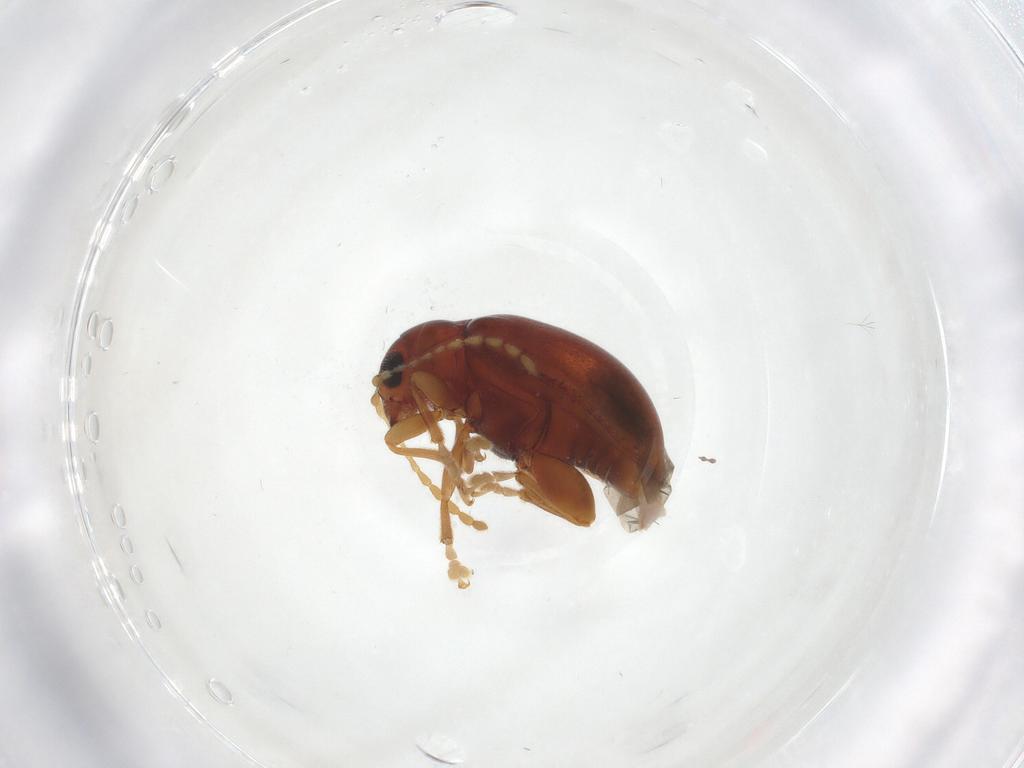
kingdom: Animalia
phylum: Arthropoda
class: Insecta
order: Coleoptera
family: Chrysomelidae
